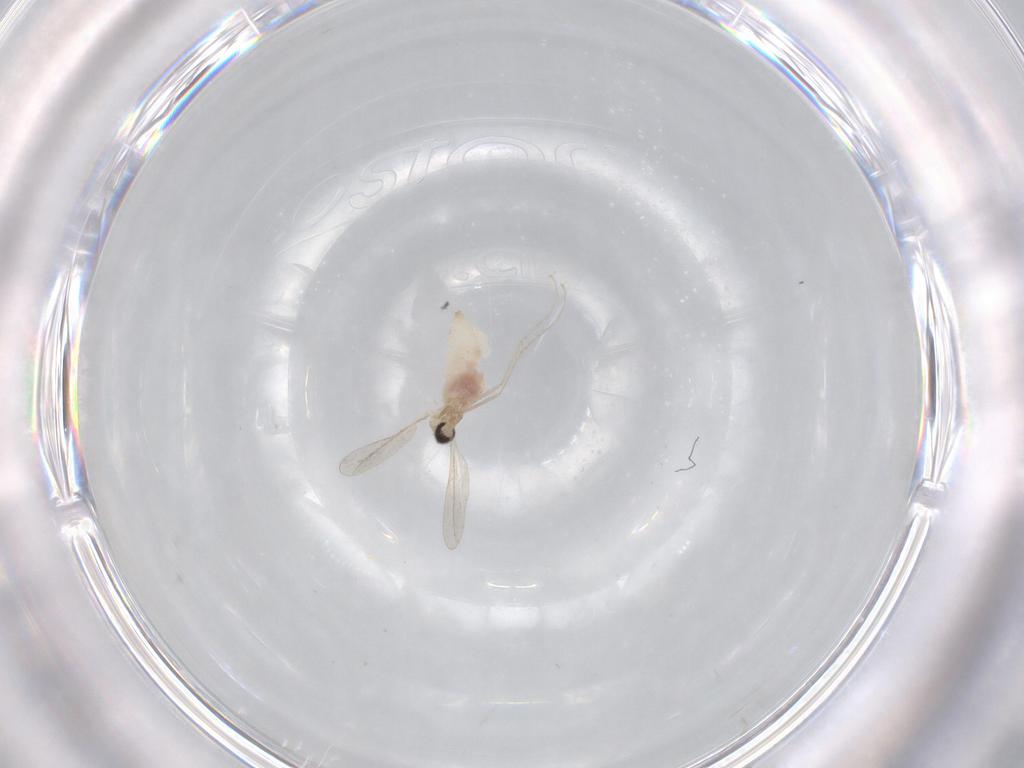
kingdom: Animalia
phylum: Arthropoda
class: Insecta
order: Diptera
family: Cecidomyiidae
